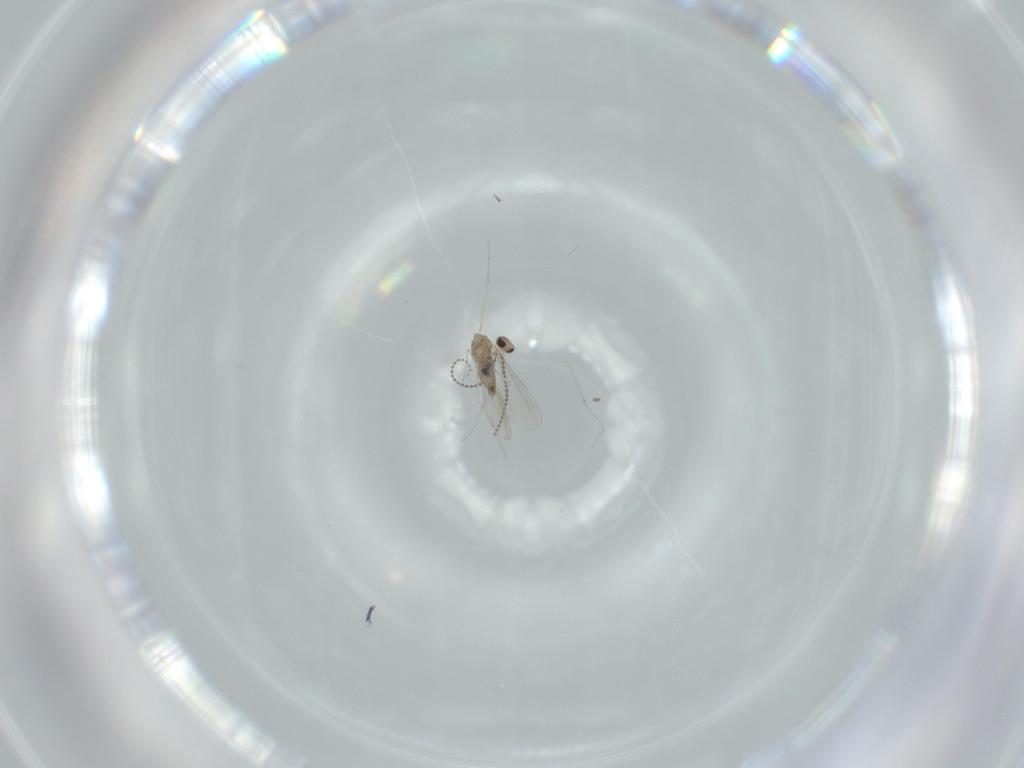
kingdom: Animalia
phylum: Arthropoda
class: Insecta
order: Diptera
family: Cecidomyiidae
